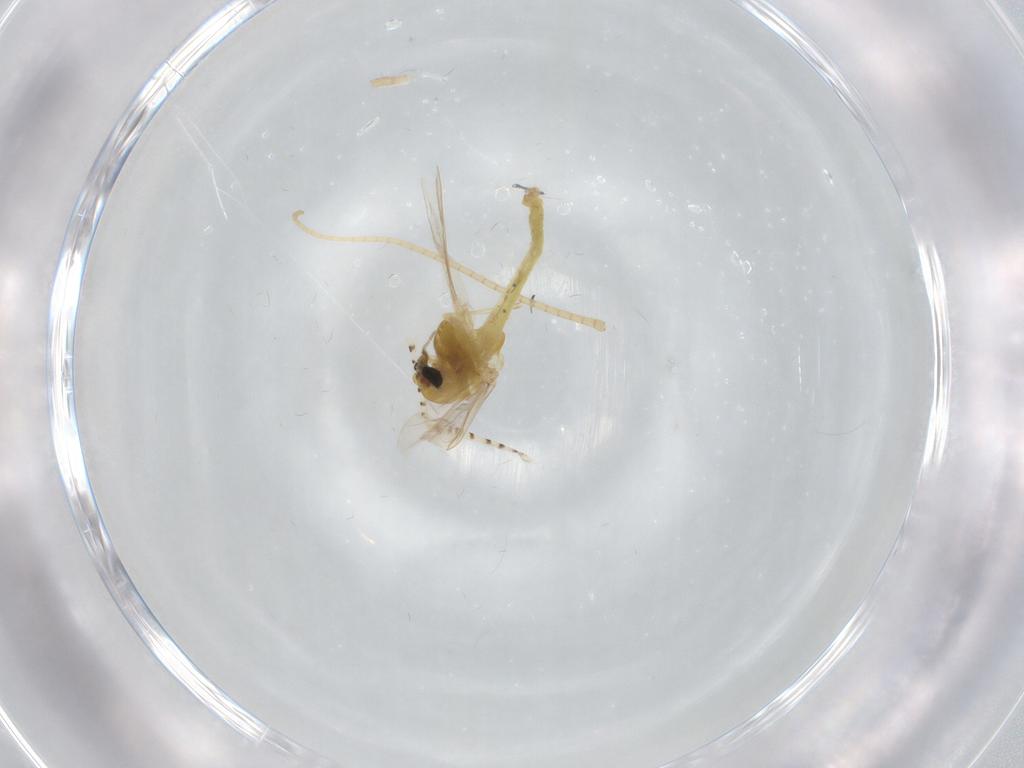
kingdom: Animalia
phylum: Arthropoda
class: Insecta
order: Diptera
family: Chironomidae
